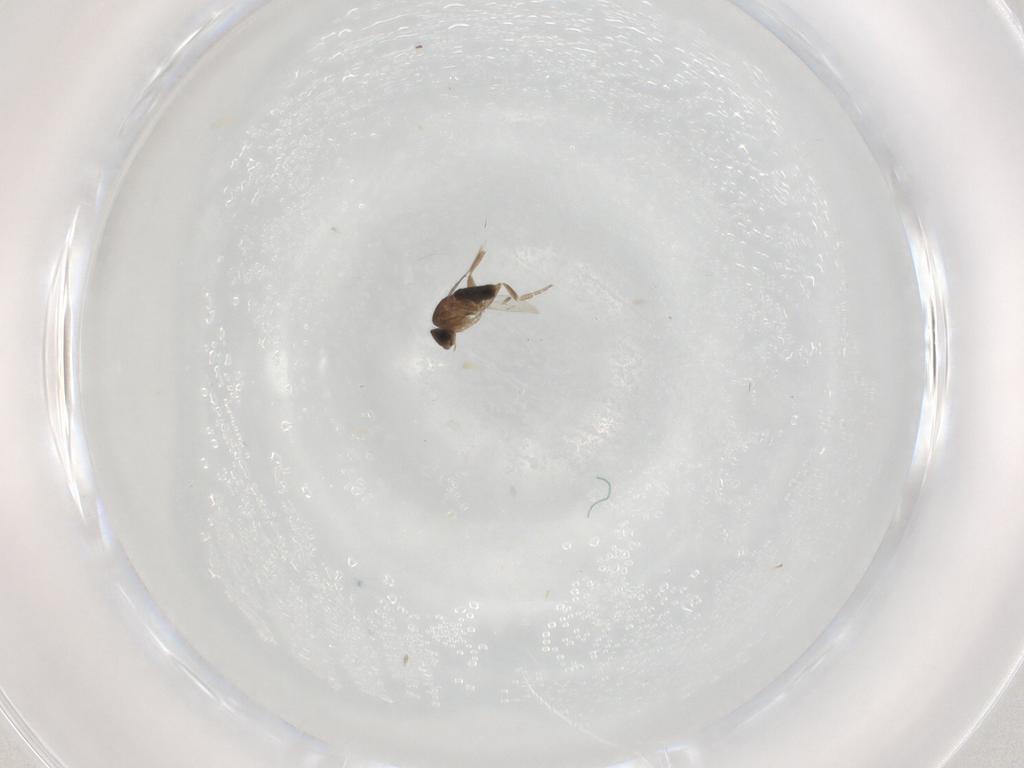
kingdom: Animalia
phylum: Arthropoda
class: Insecta
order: Diptera
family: Phoridae
